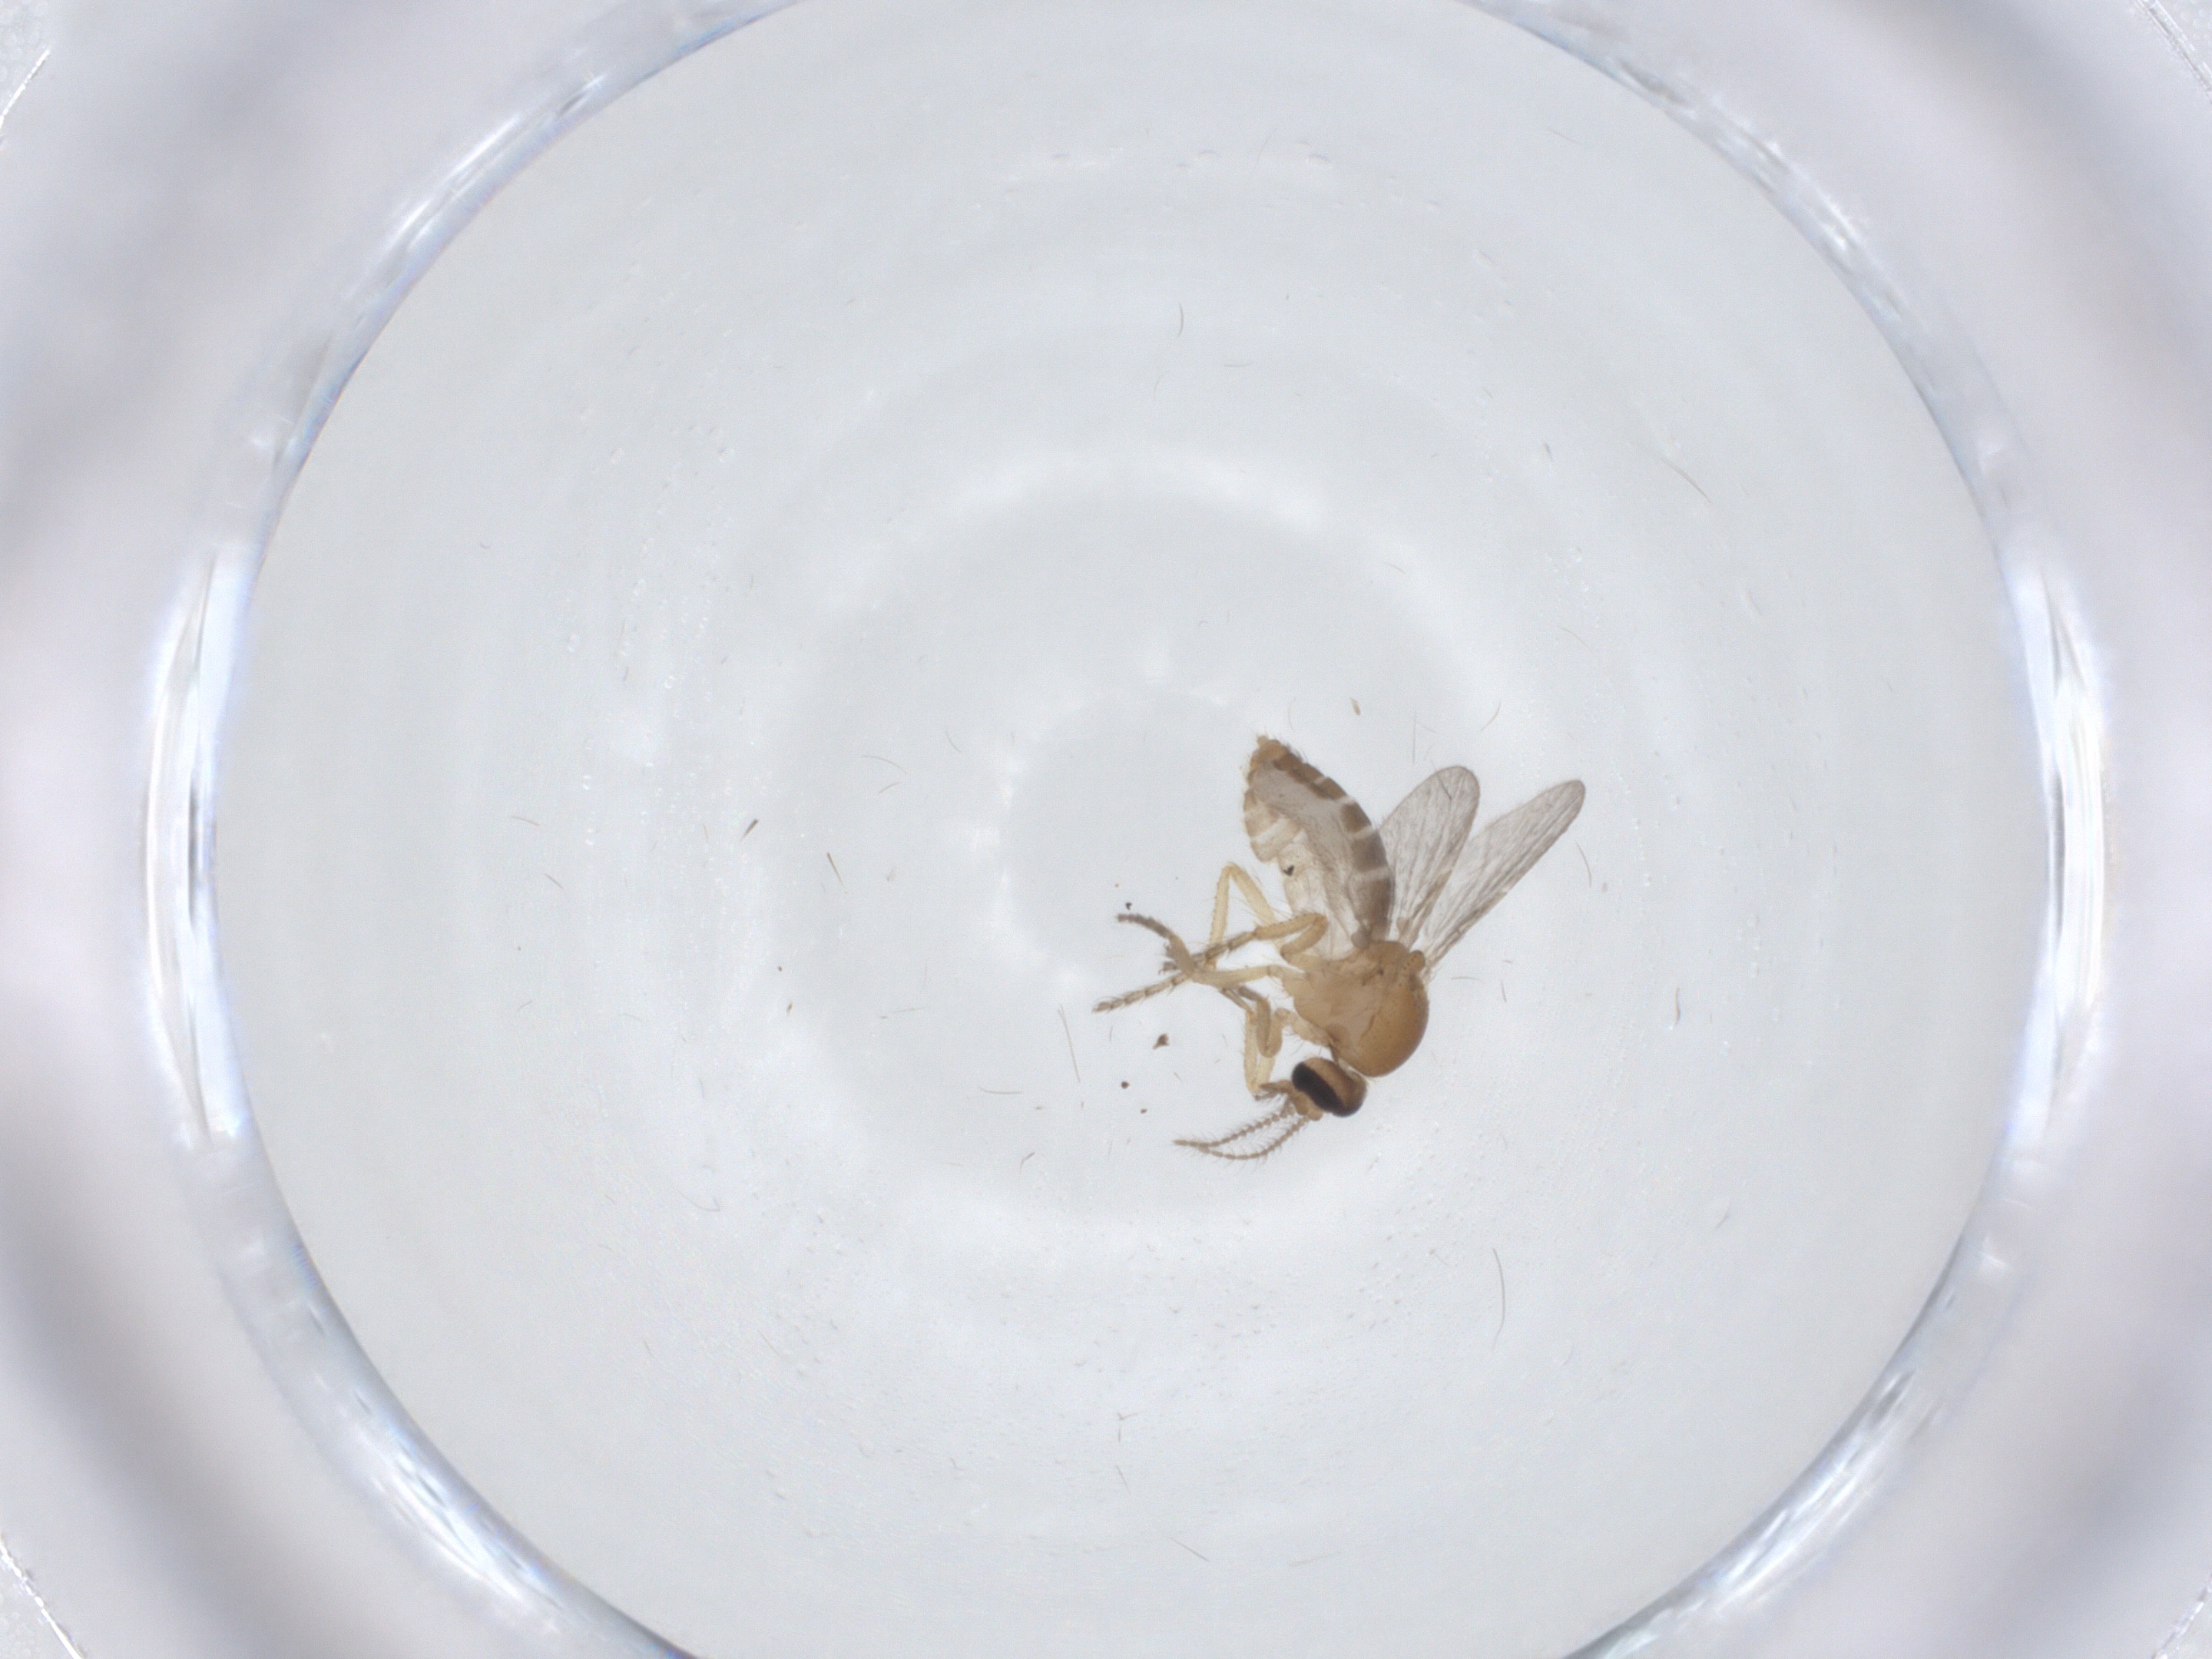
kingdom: Animalia
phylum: Arthropoda
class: Insecta
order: Diptera
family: Ceratopogonidae
